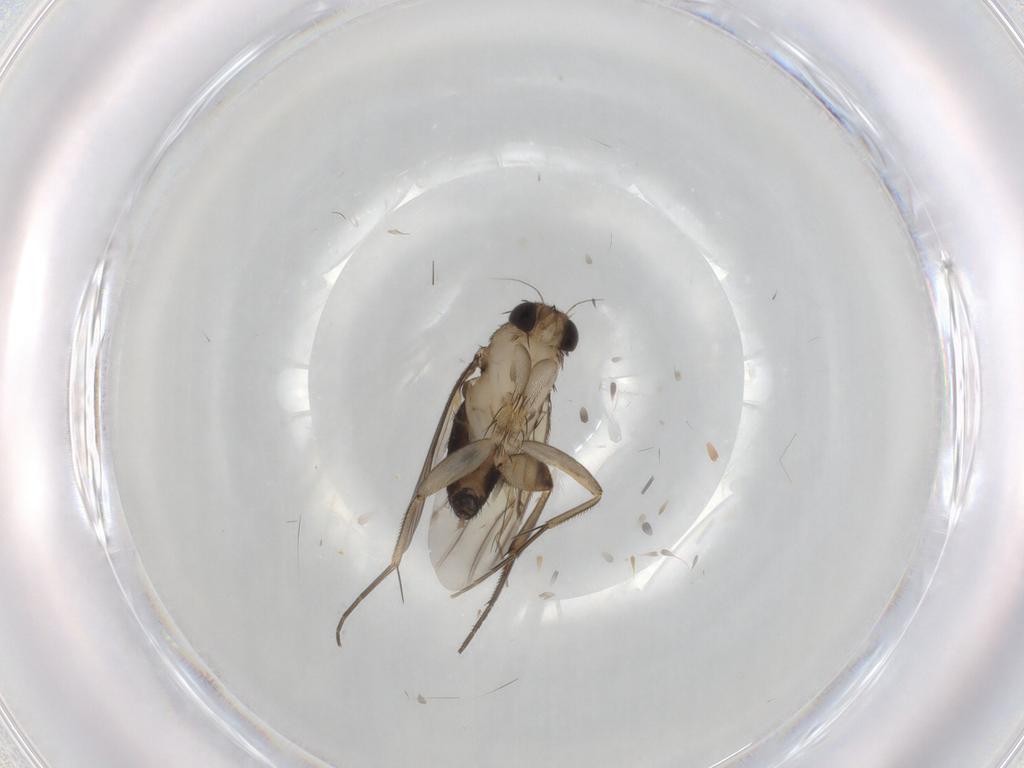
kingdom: Animalia
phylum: Arthropoda
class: Insecta
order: Diptera
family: Phoridae
